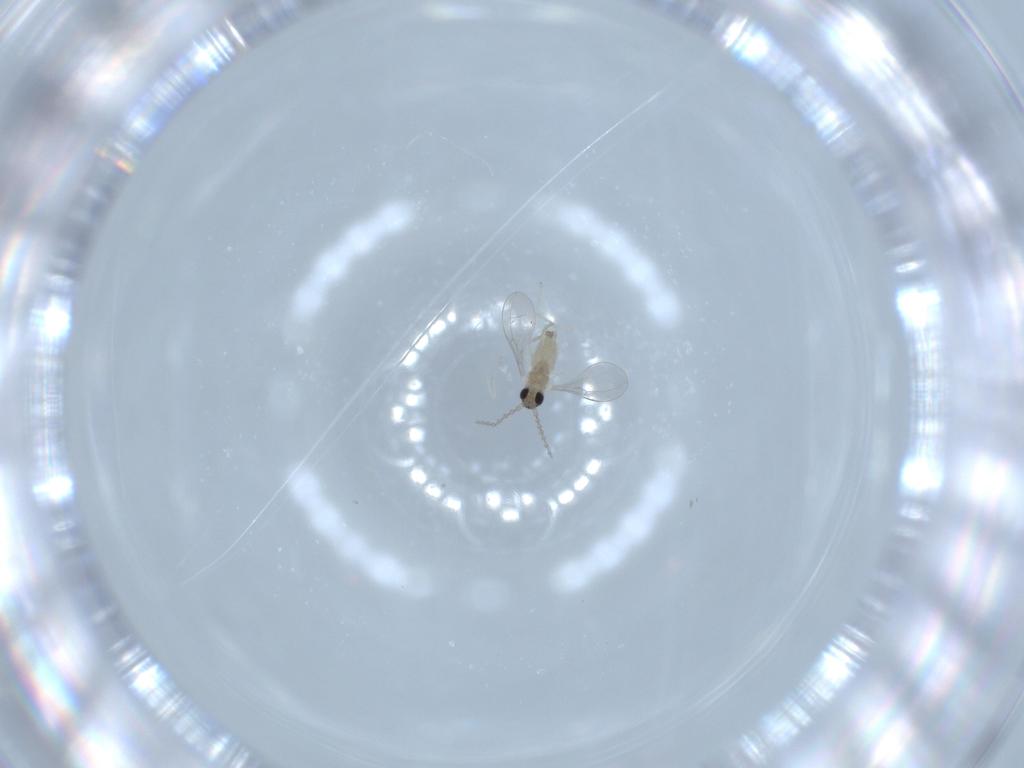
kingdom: Animalia
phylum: Arthropoda
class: Insecta
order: Diptera
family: Cecidomyiidae
